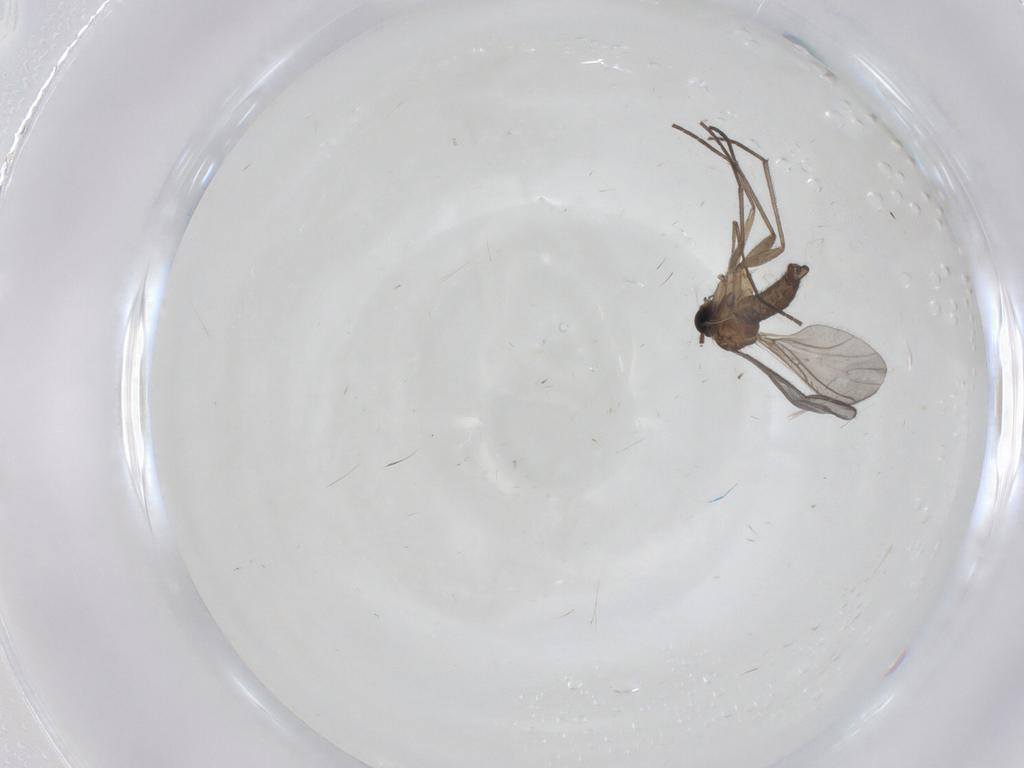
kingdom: Animalia
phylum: Arthropoda
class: Insecta
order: Diptera
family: Sciaridae
